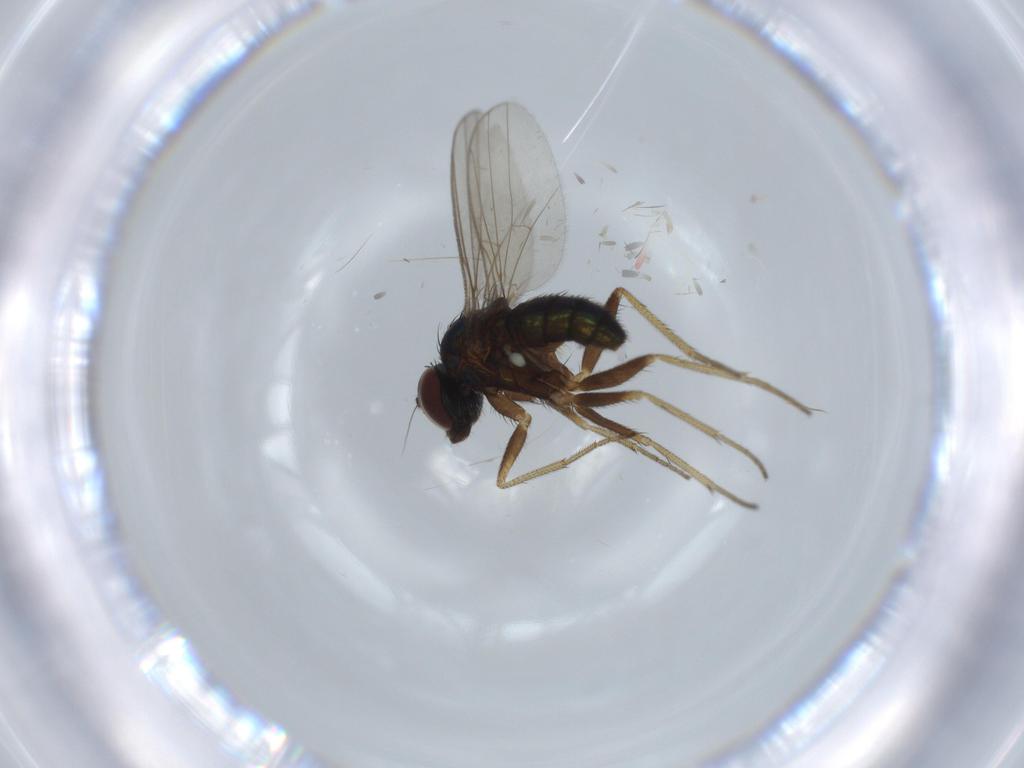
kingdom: Animalia
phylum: Arthropoda
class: Insecta
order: Diptera
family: Dolichopodidae
